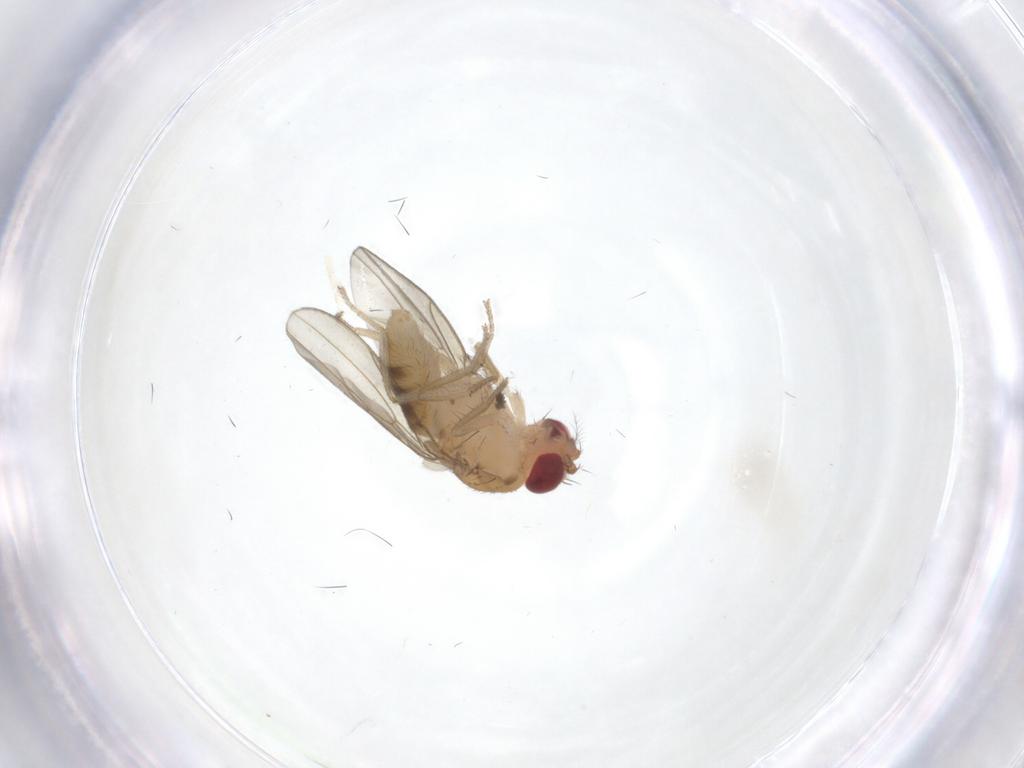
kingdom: Animalia
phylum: Arthropoda
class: Insecta
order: Diptera
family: Drosophilidae
